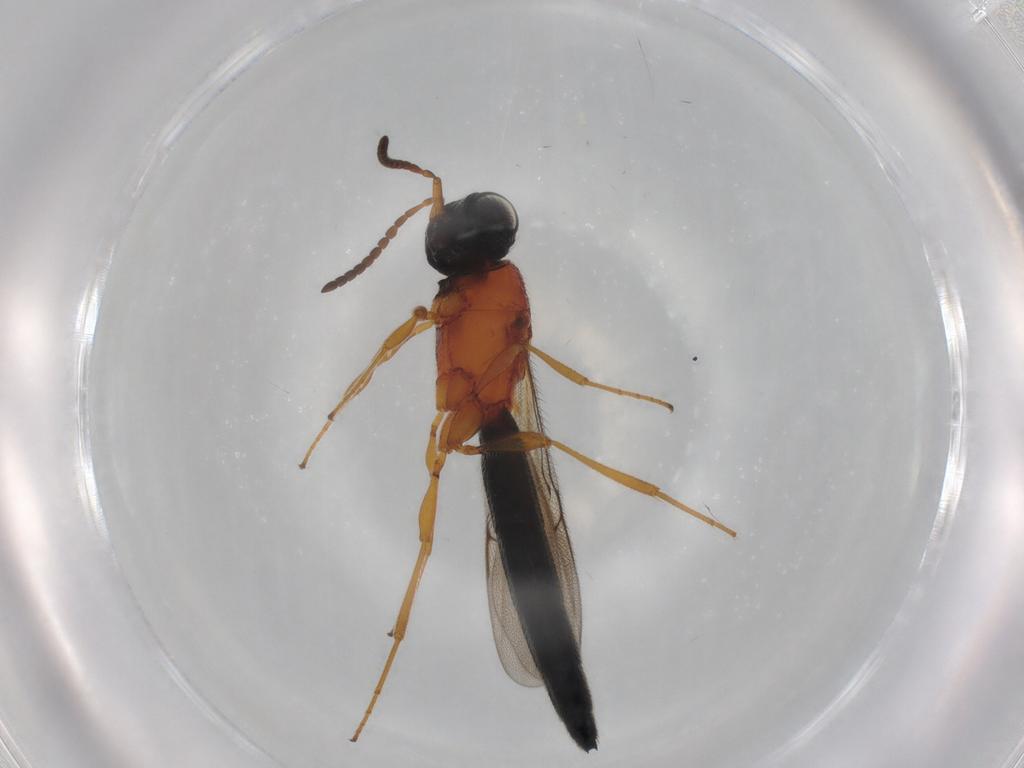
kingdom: Animalia
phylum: Arthropoda
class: Insecta
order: Hymenoptera
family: Scelionidae
